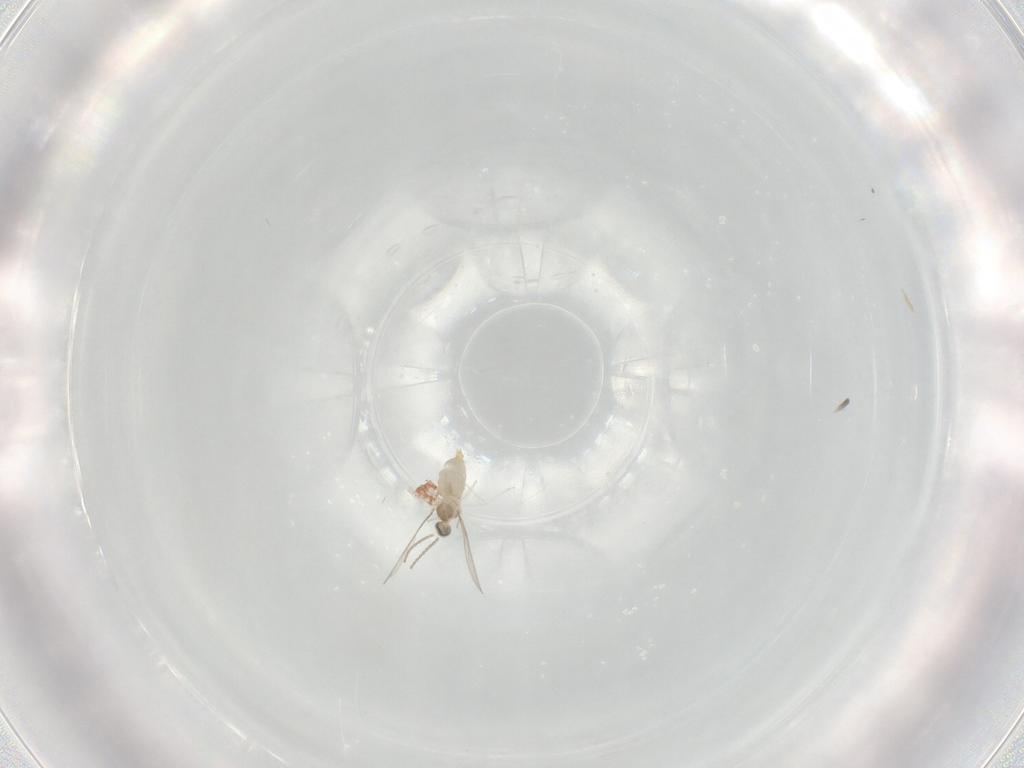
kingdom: Animalia
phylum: Arthropoda
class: Insecta
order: Diptera
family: Cecidomyiidae
